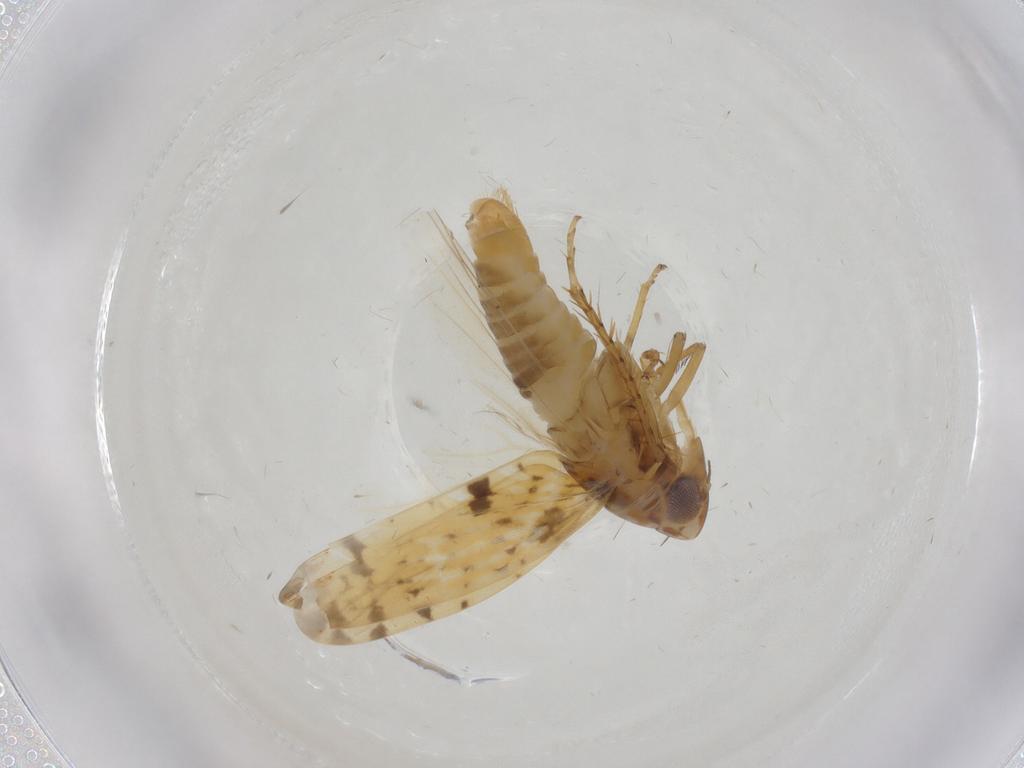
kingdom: Animalia
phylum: Arthropoda
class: Insecta
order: Hemiptera
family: Cicadellidae
